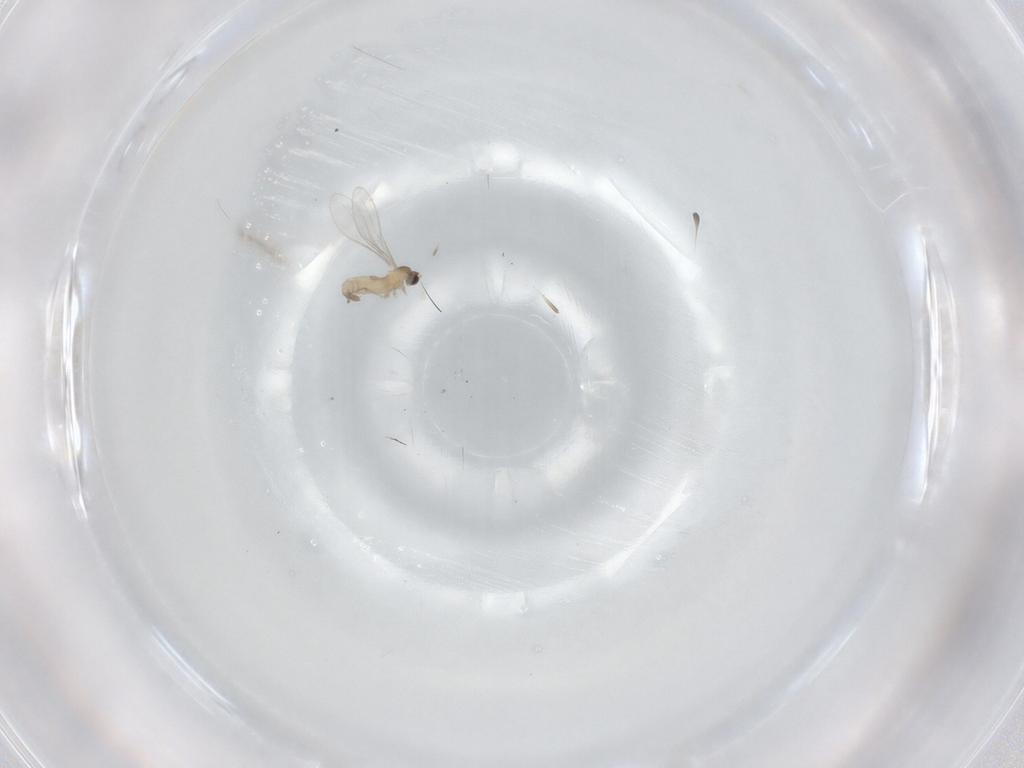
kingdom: Animalia
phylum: Arthropoda
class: Insecta
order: Diptera
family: Cecidomyiidae
